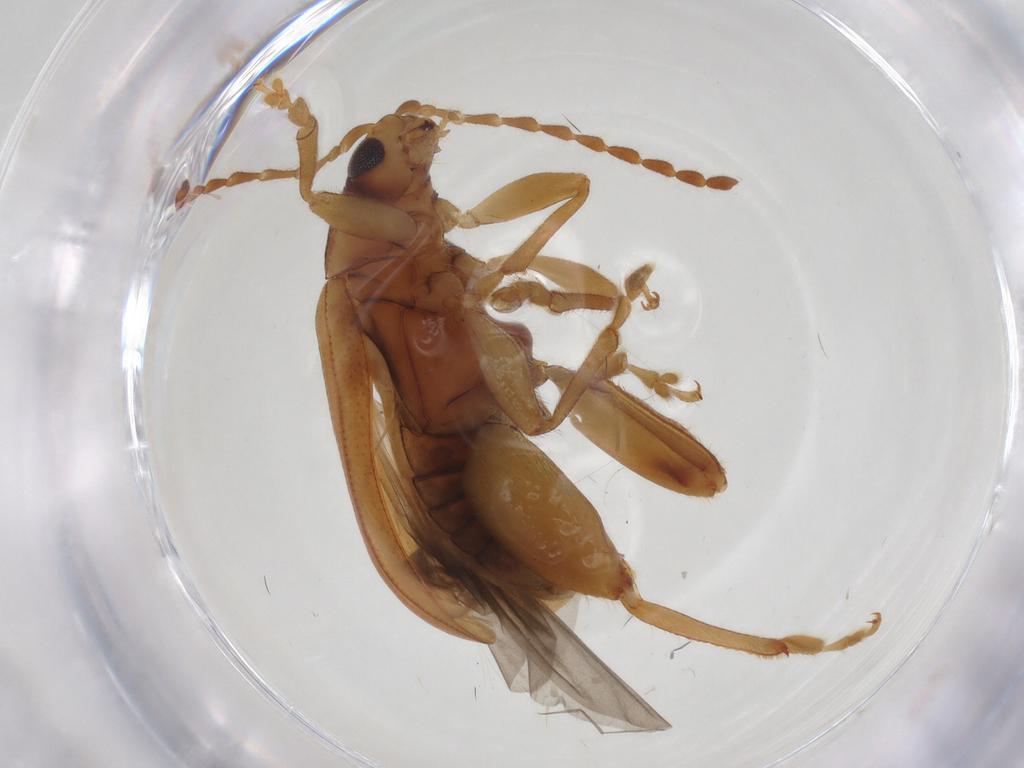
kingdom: Animalia
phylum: Arthropoda
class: Insecta
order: Coleoptera
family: Chrysomelidae
